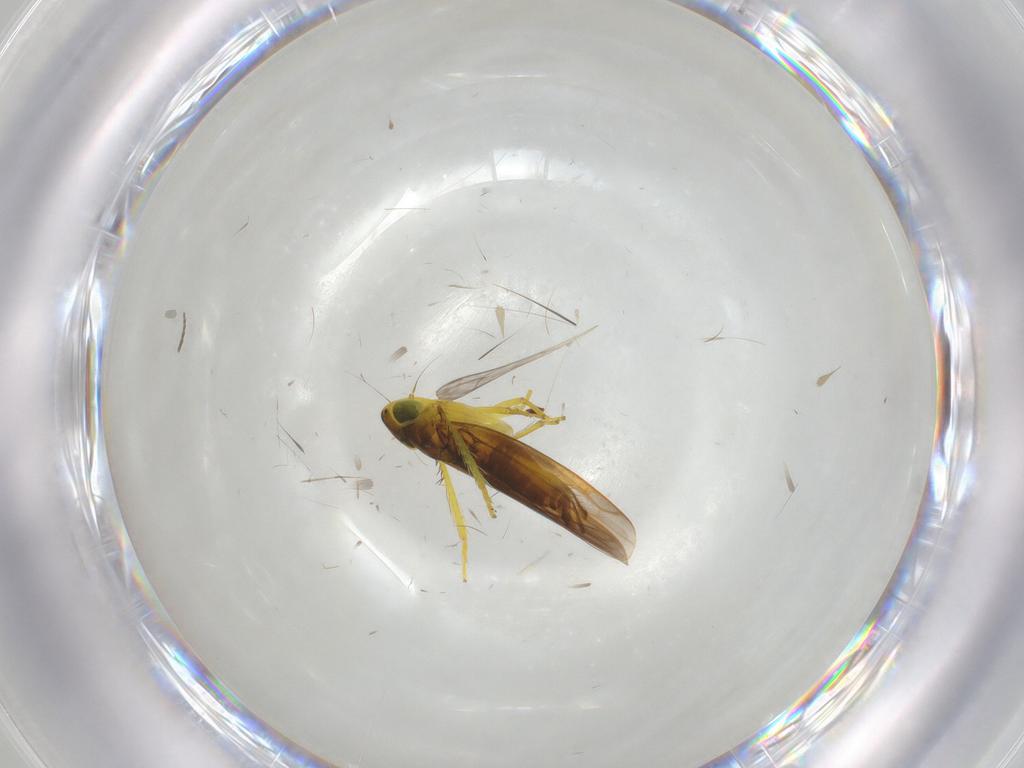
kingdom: Animalia
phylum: Arthropoda
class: Insecta
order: Hemiptera
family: Cicadellidae
